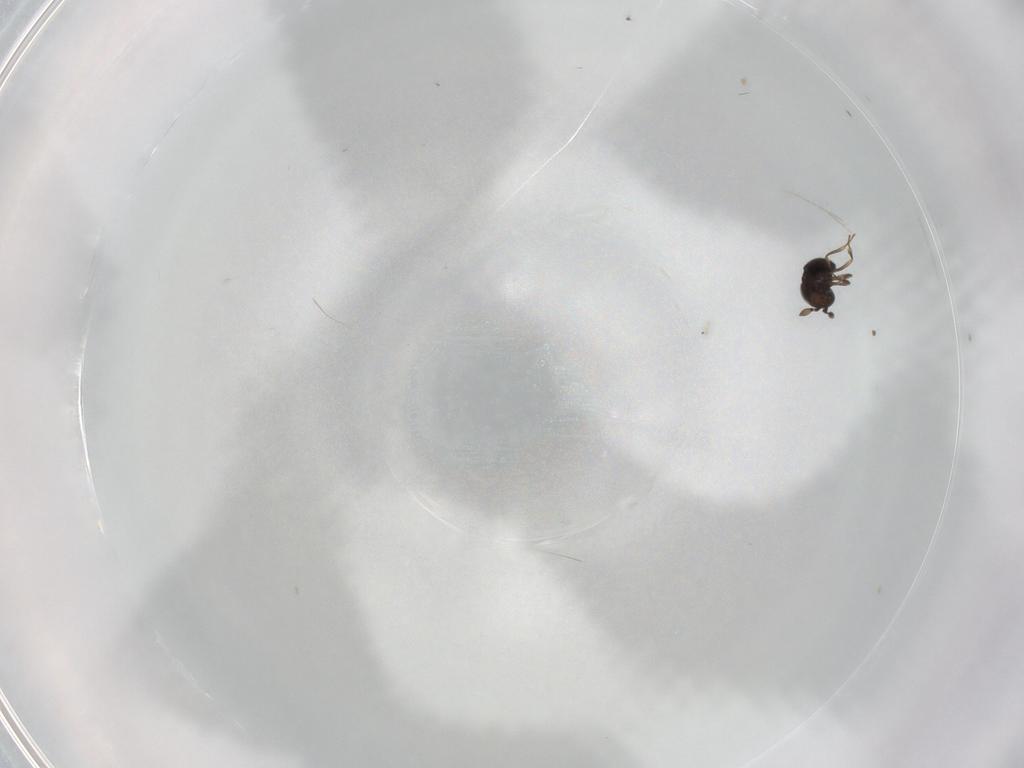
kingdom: Animalia
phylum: Arthropoda
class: Insecta
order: Hymenoptera
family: Scelionidae
